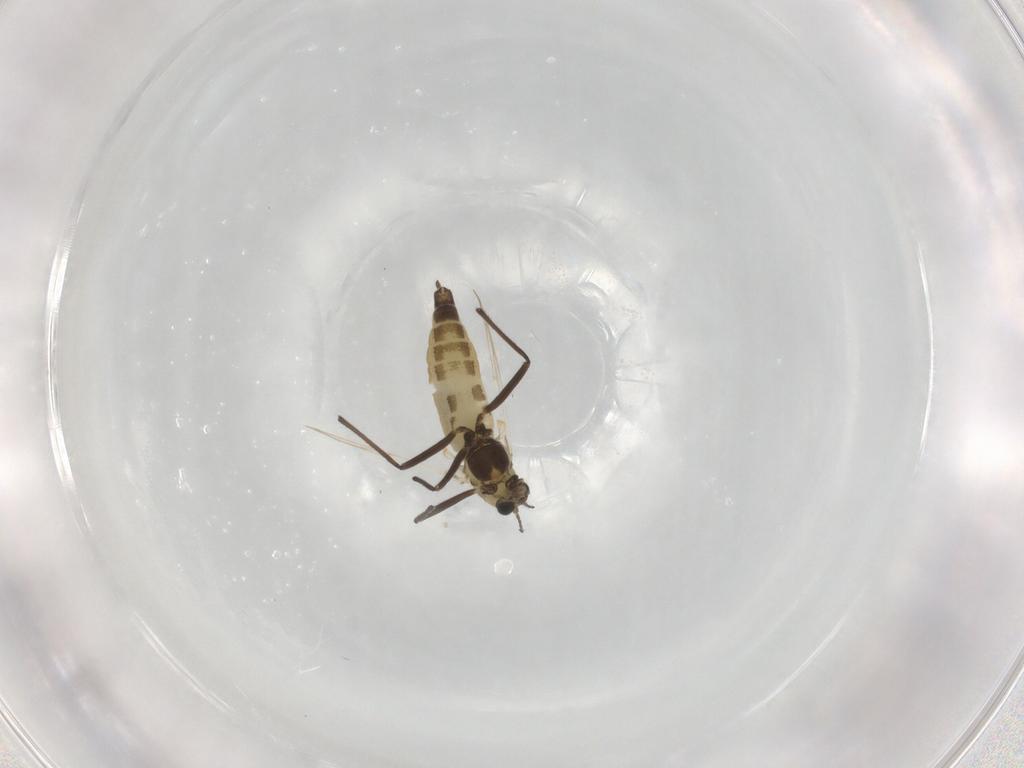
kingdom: Animalia
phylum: Arthropoda
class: Insecta
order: Diptera
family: Chironomidae
